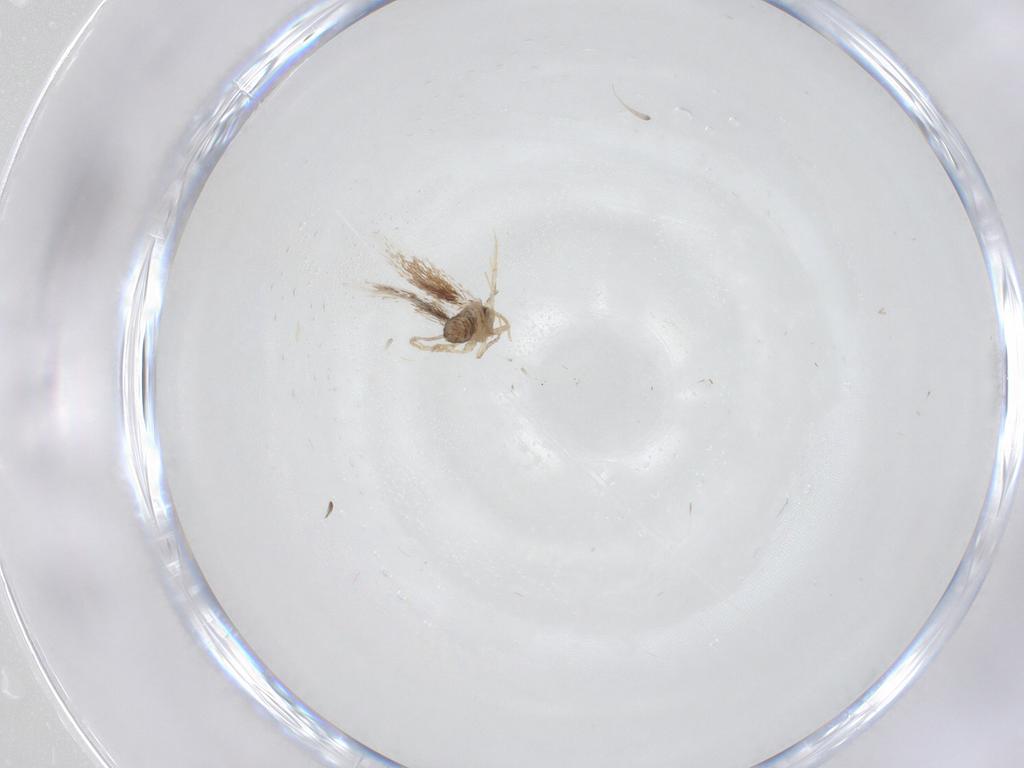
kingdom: Animalia
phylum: Arthropoda
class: Insecta
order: Lepidoptera
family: Nepticulidae
